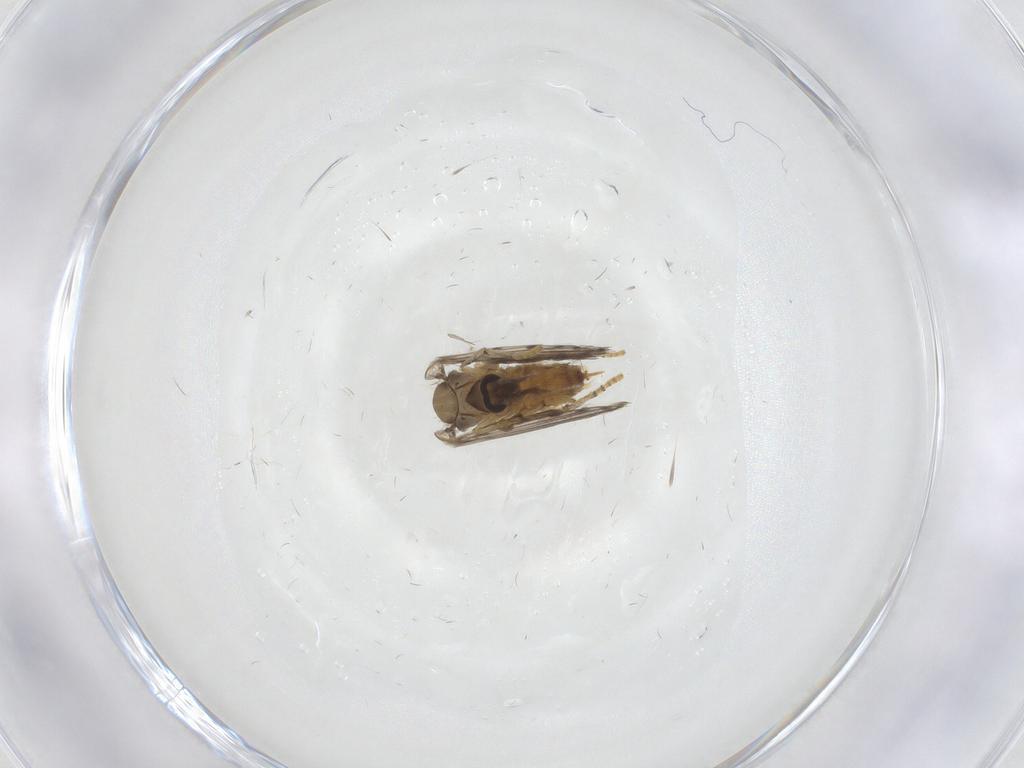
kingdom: Animalia
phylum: Arthropoda
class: Insecta
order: Diptera
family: Psychodidae
